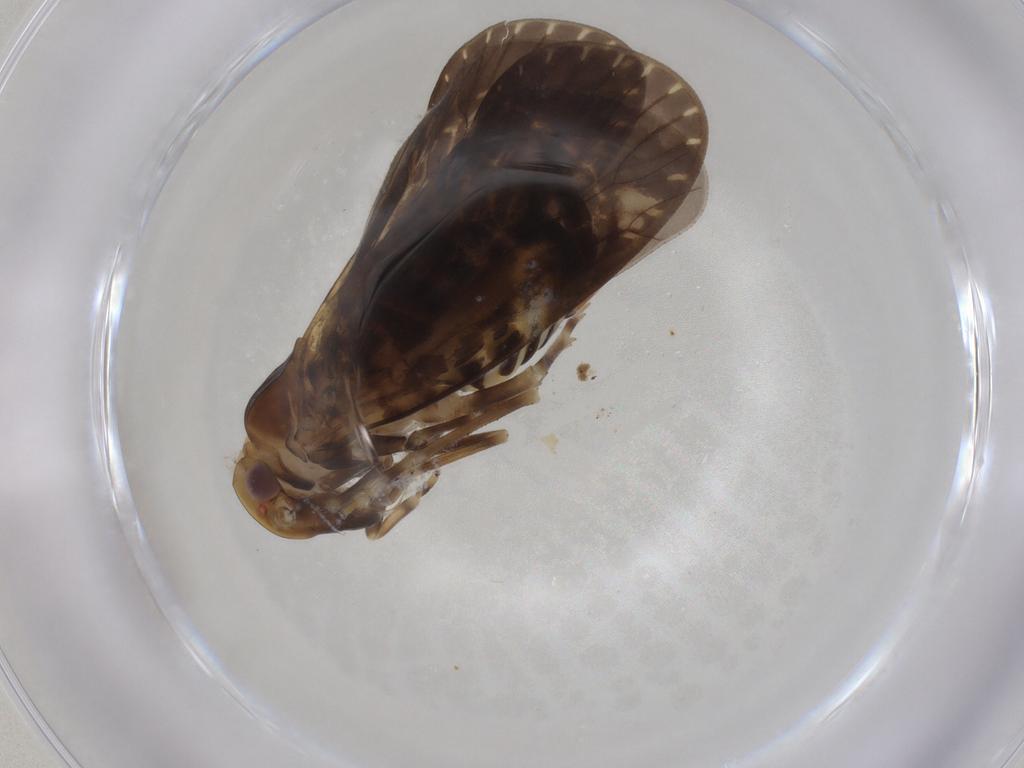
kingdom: Animalia
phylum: Arthropoda
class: Insecta
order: Hemiptera
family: Cixiidae
